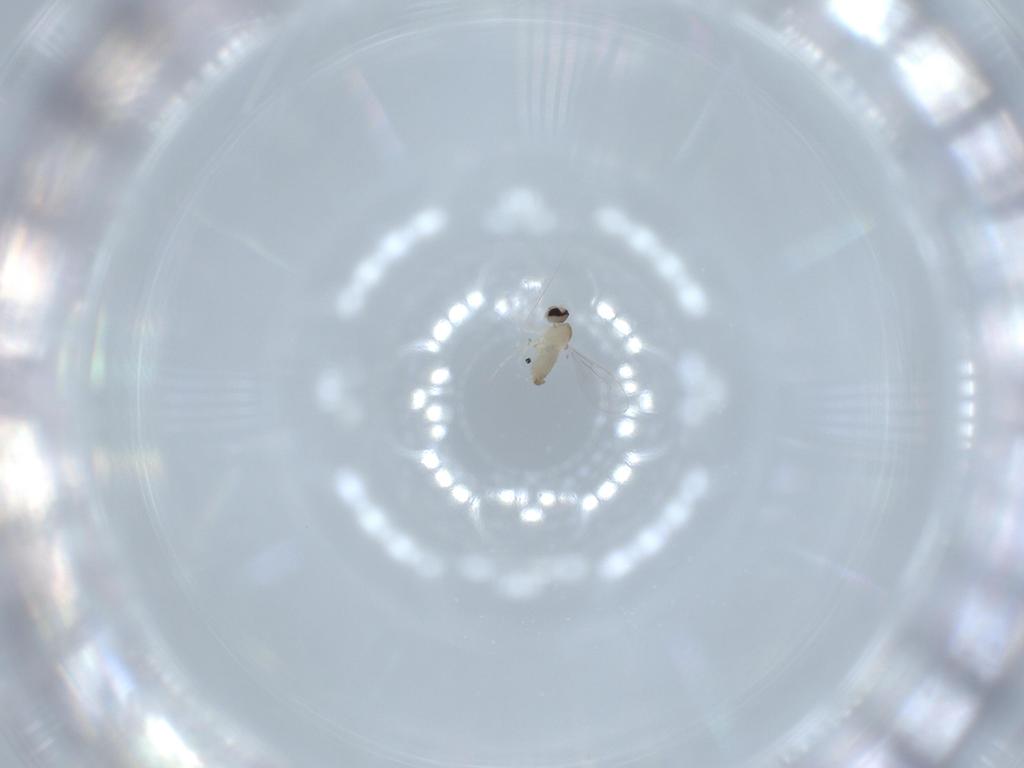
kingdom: Animalia
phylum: Arthropoda
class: Insecta
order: Diptera
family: Cecidomyiidae
